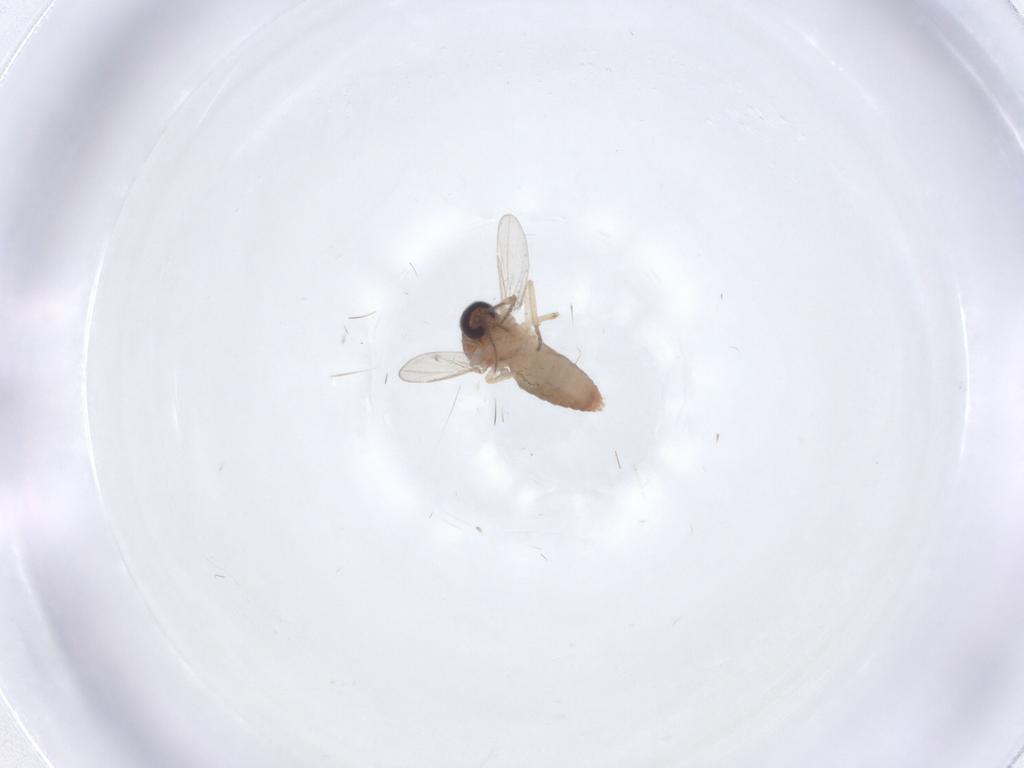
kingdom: Animalia
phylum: Arthropoda
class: Insecta
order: Diptera
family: Ceratopogonidae
